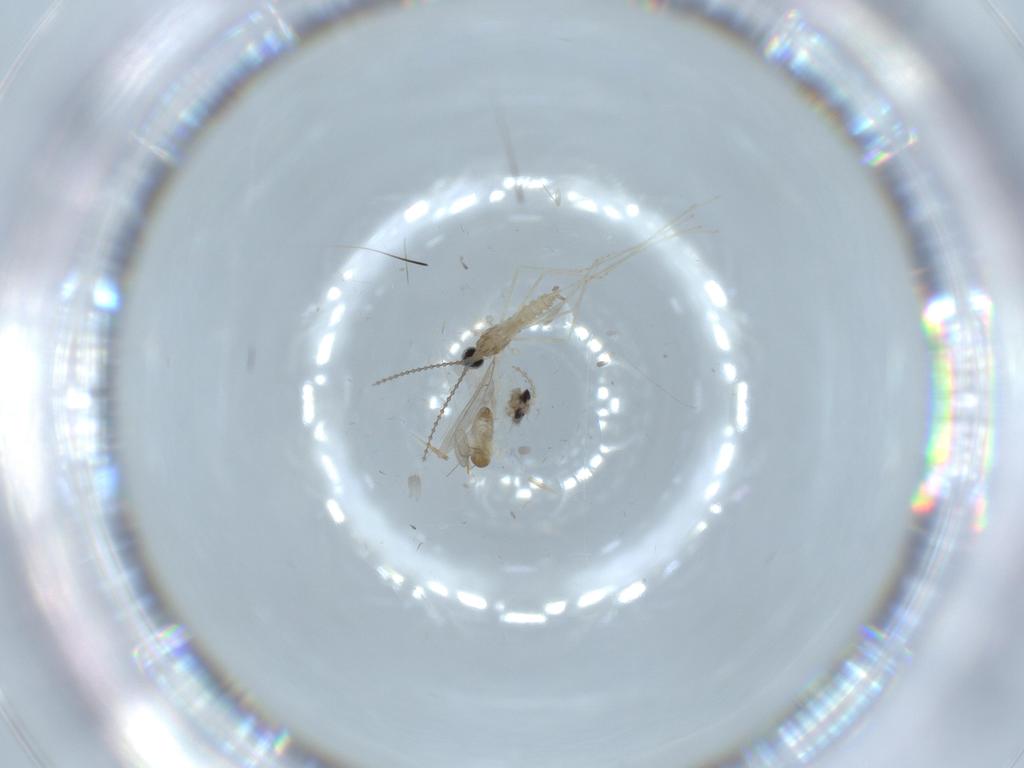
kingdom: Animalia
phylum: Arthropoda
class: Insecta
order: Diptera
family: Cecidomyiidae
